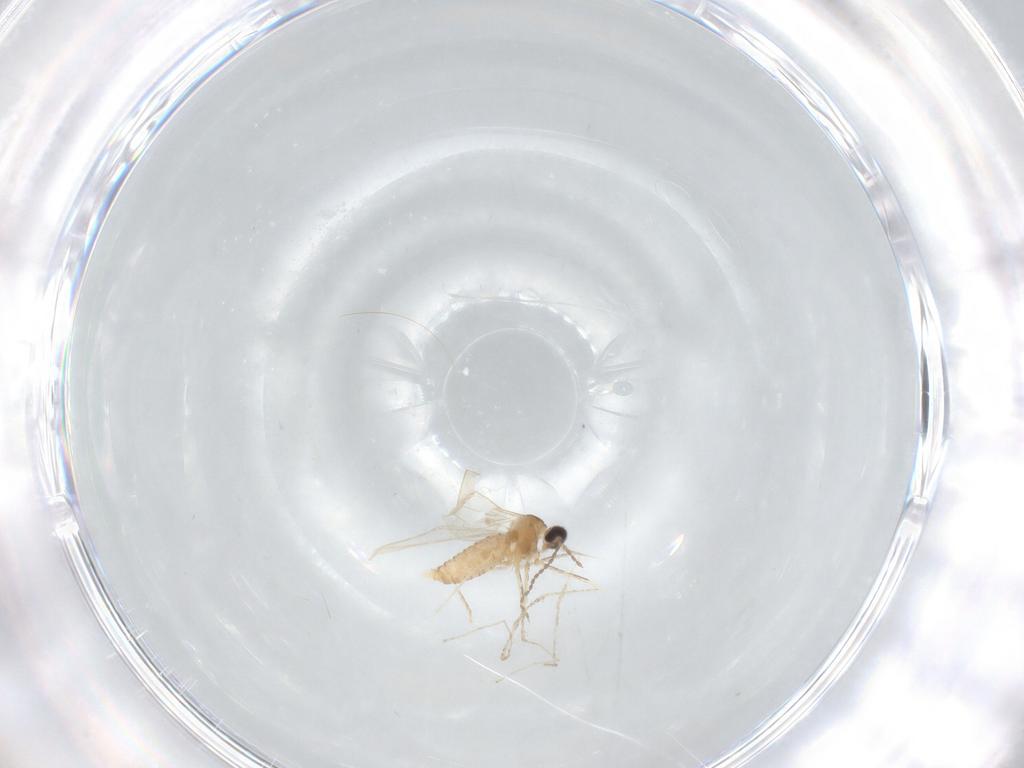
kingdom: Animalia
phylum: Arthropoda
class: Insecta
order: Diptera
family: Cecidomyiidae
